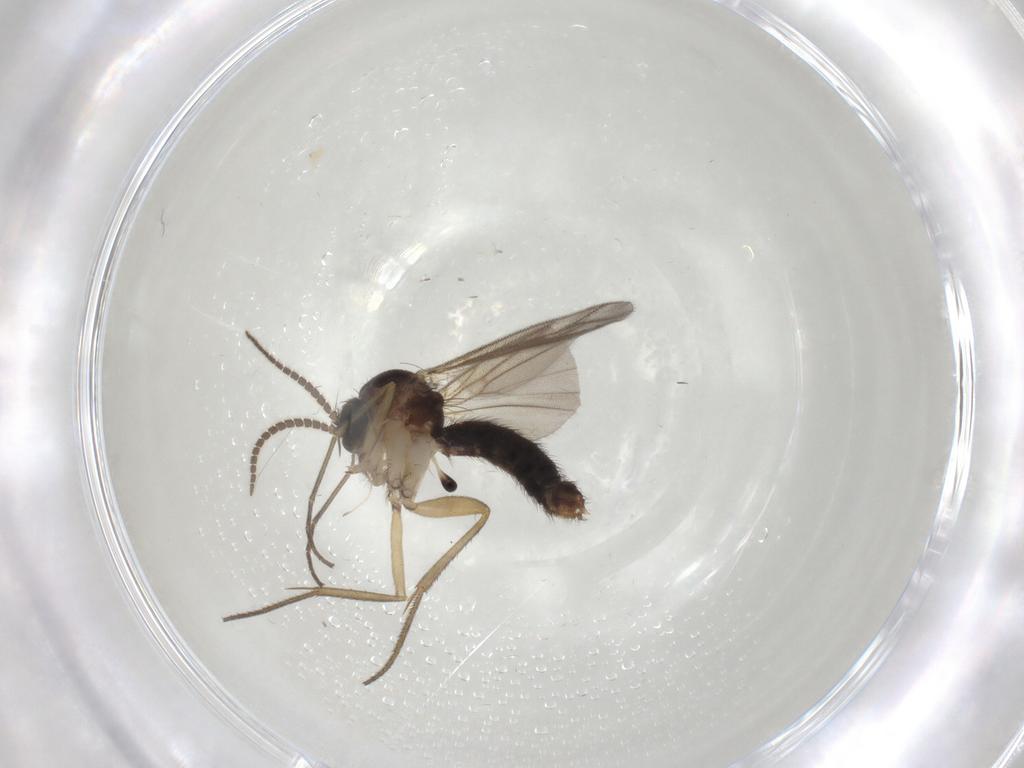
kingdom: Animalia
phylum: Arthropoda
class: Insecta
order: Diptera
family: Mycetophilidae
